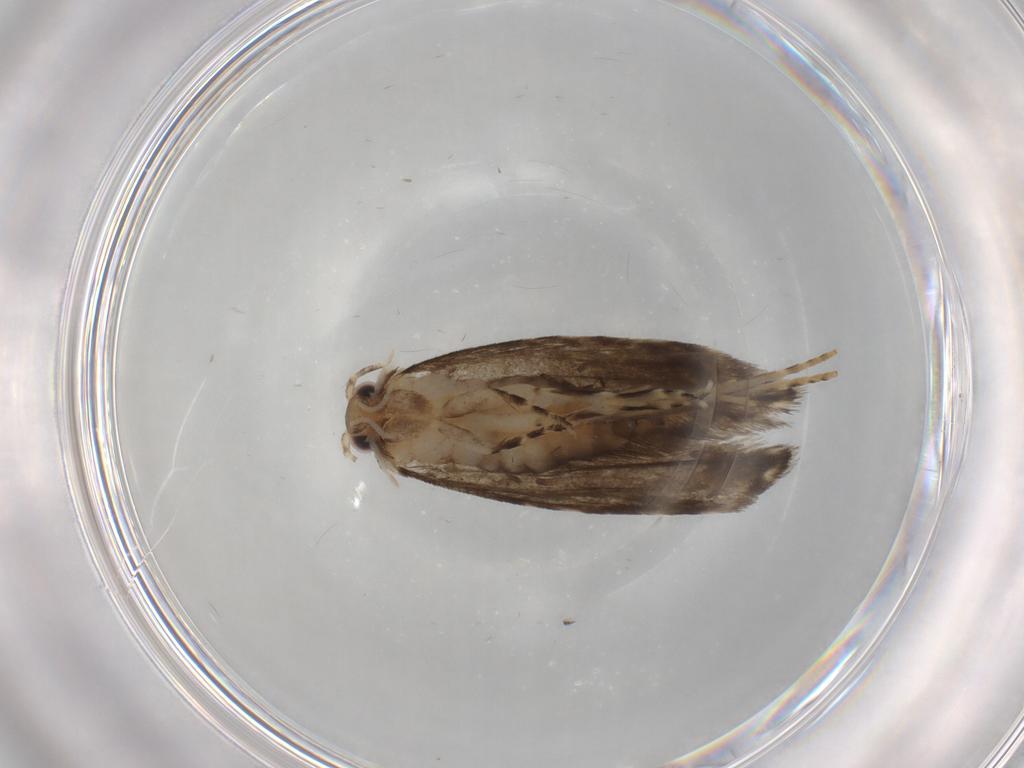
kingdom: Animalia
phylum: Arthropoda
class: Insecta
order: Lepidoptera
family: Tineidae
